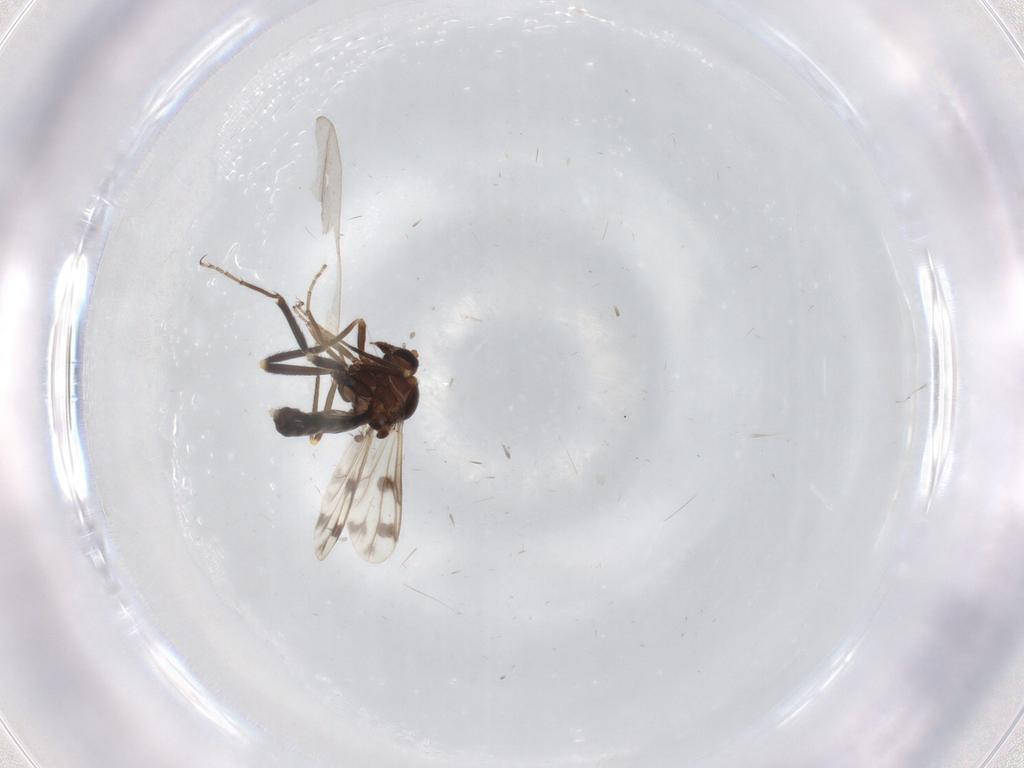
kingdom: Animalia
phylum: Arthropoda
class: Insecta
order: Diptera
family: Ceratopogonidae
